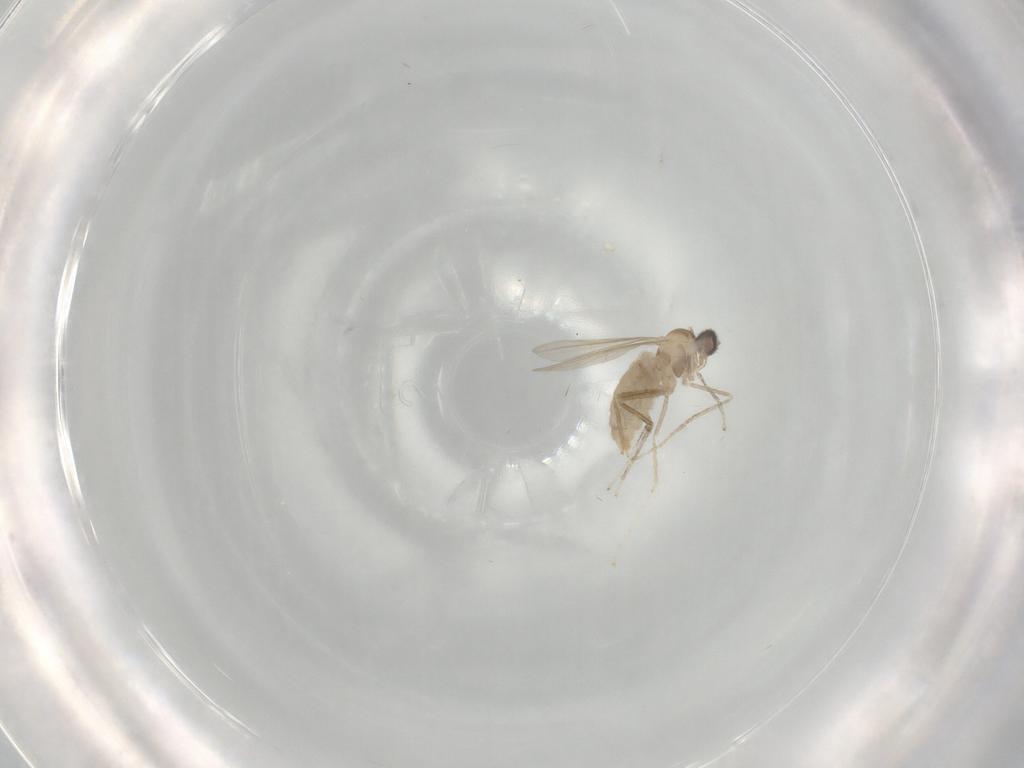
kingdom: Animalia
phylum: Arthropoda
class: Insecta
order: Diptera
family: Cecidomyiidae
